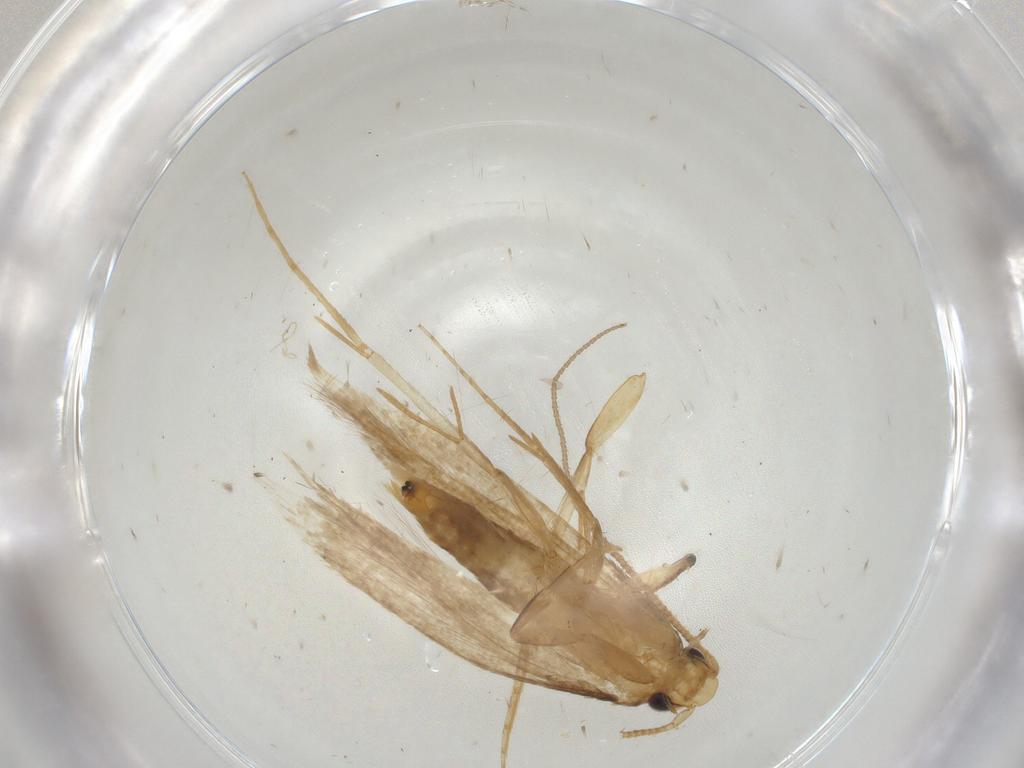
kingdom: Animalia
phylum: Arthropoda
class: Insecta
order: Lepidoptera
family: Tineidae
